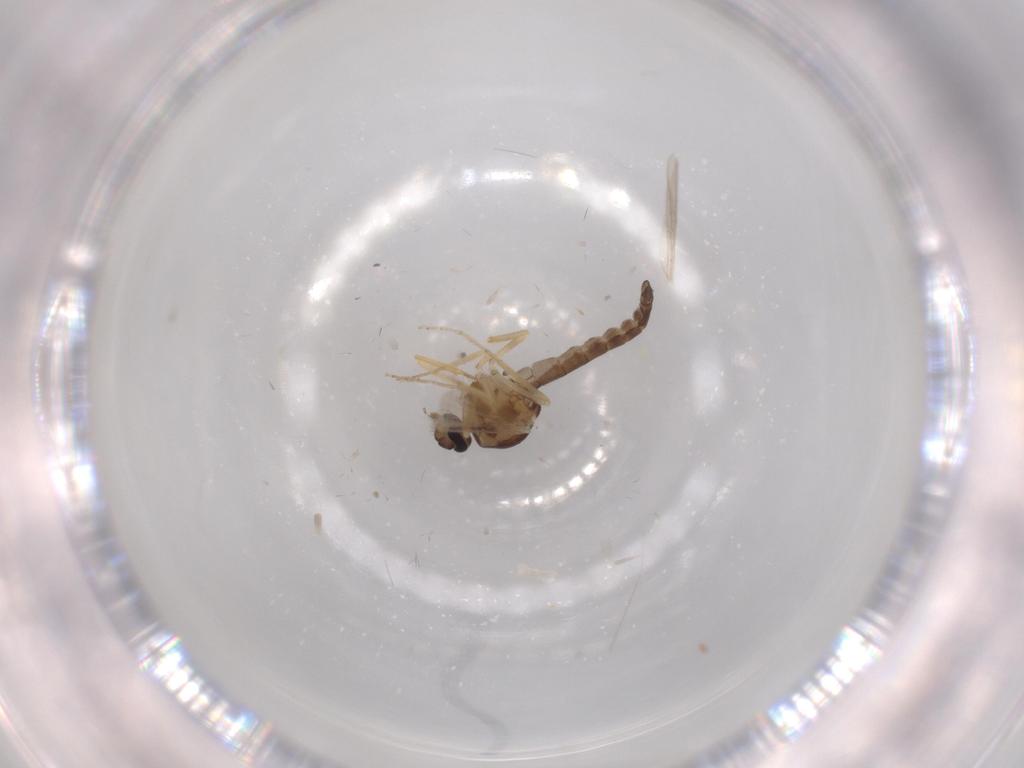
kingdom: Animalia
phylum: Arthropoda
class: Insecta
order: Diptera
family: Ceratopogonidae
